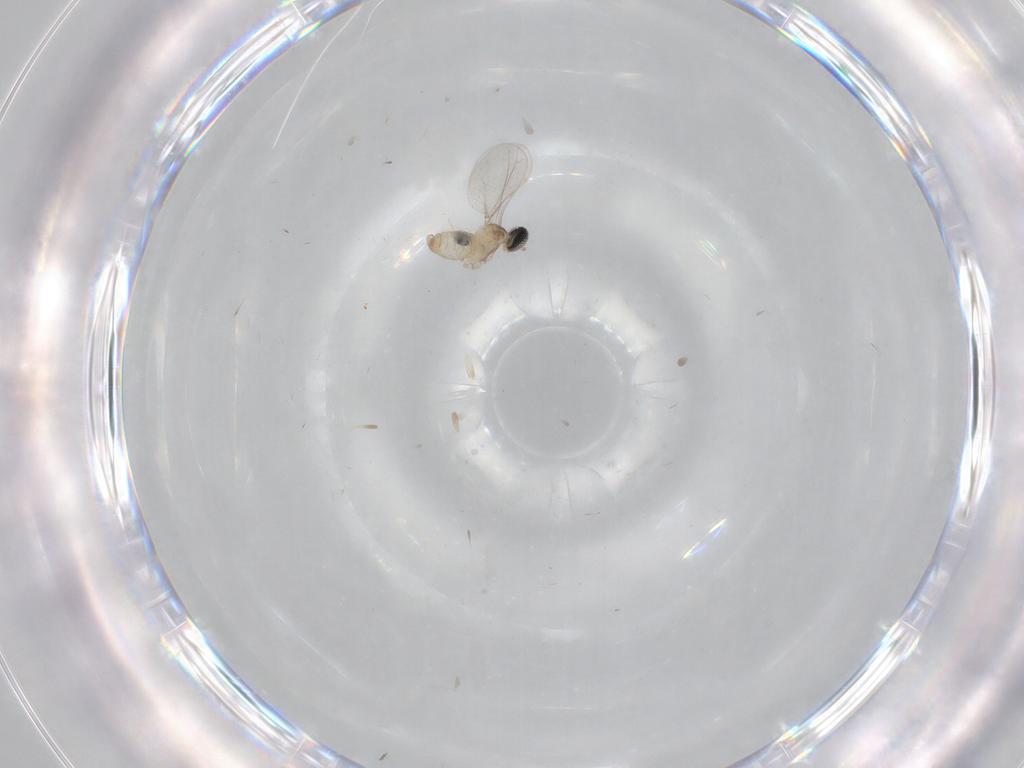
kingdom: Animalia
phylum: Arthropoda
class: Insecta
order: Diptera
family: Cecidomyiidae
